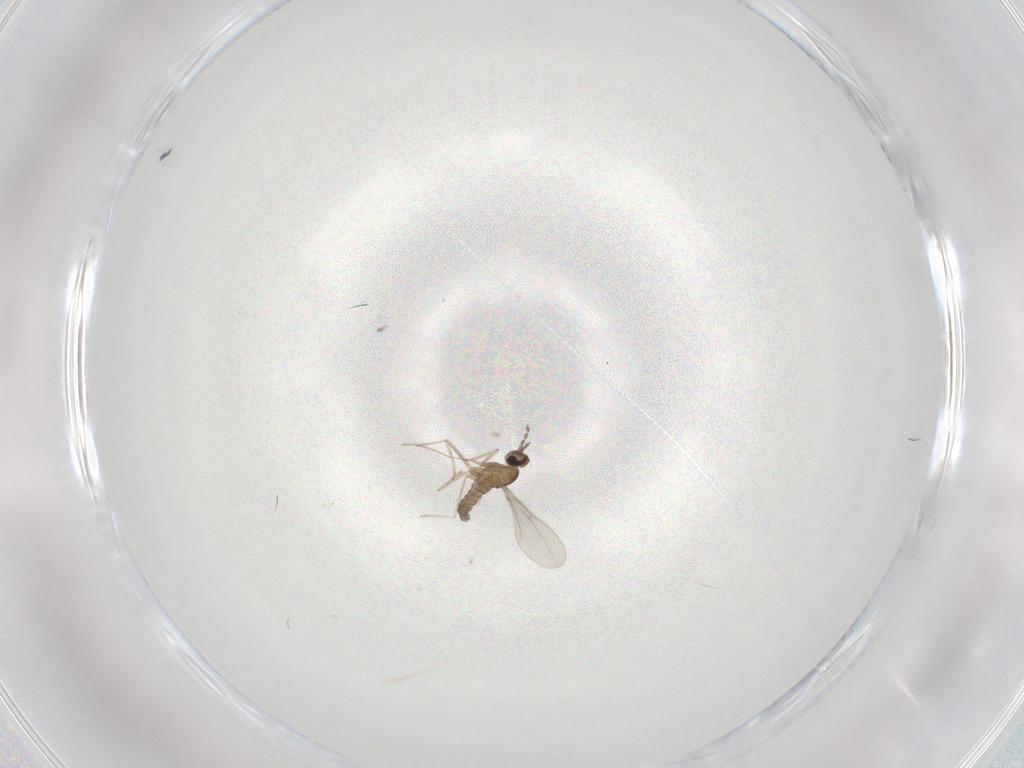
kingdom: Animalia
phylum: Arthropoda
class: Insecta
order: Diptera
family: Cecidomyiidae
